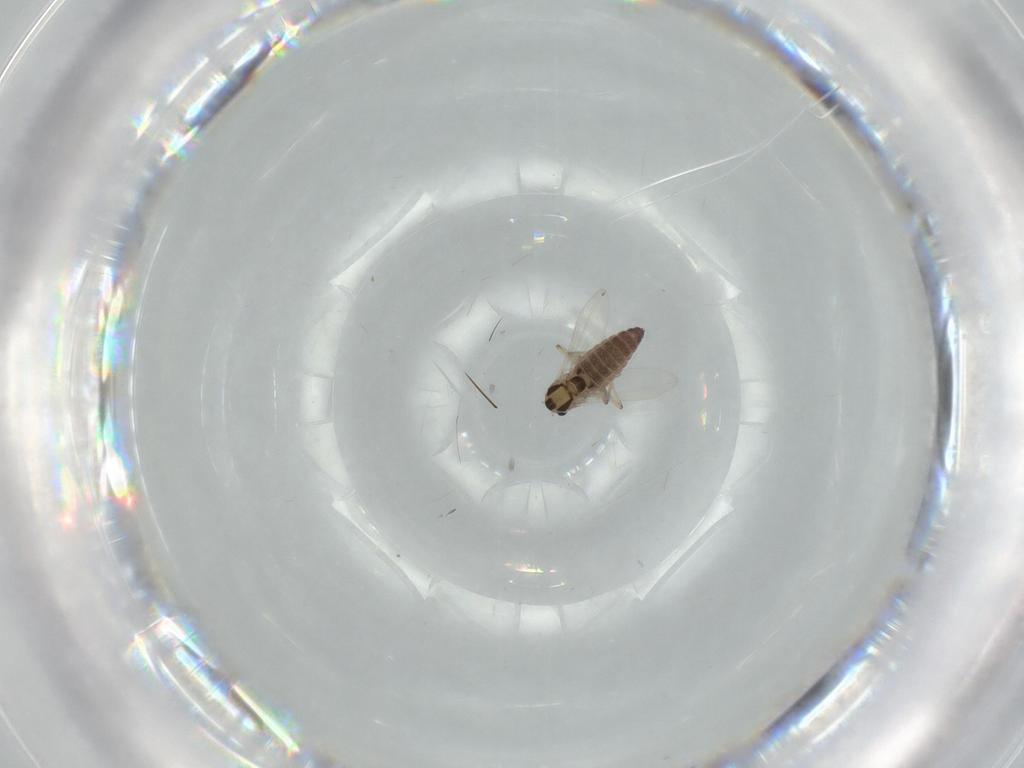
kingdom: Animalia
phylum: Arthropoda
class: Insecta
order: Diptera
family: Chironomidae
